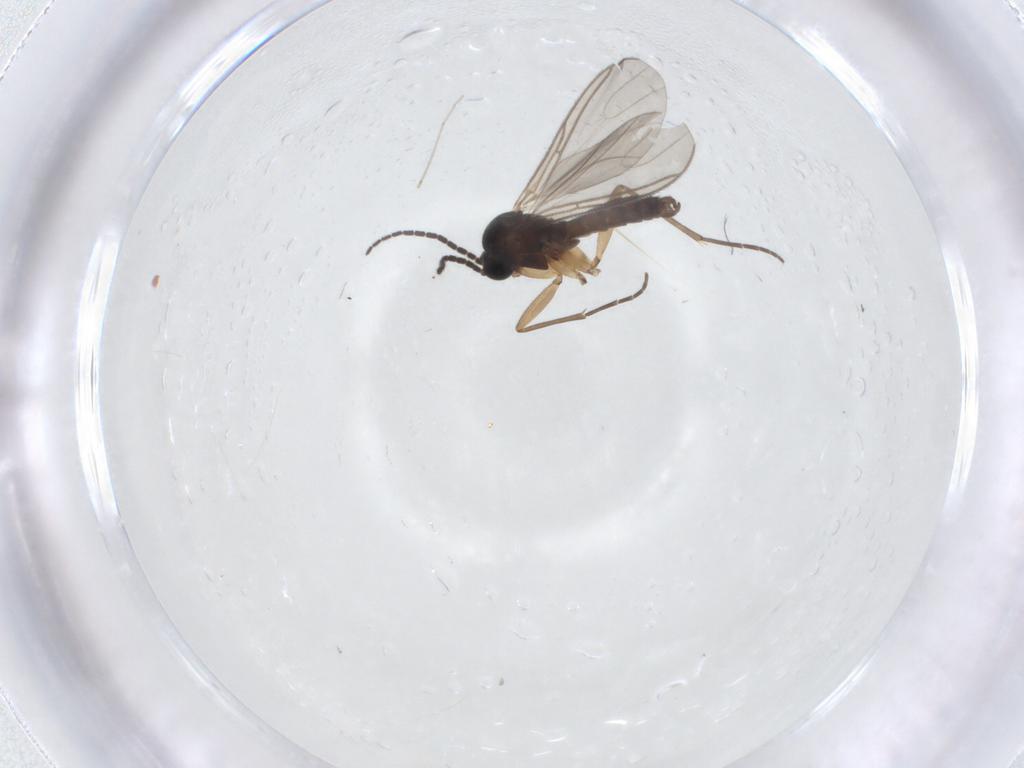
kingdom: Animalia
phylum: Arthropoda
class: Insecta
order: Diptera
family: Cecidomyiidae
